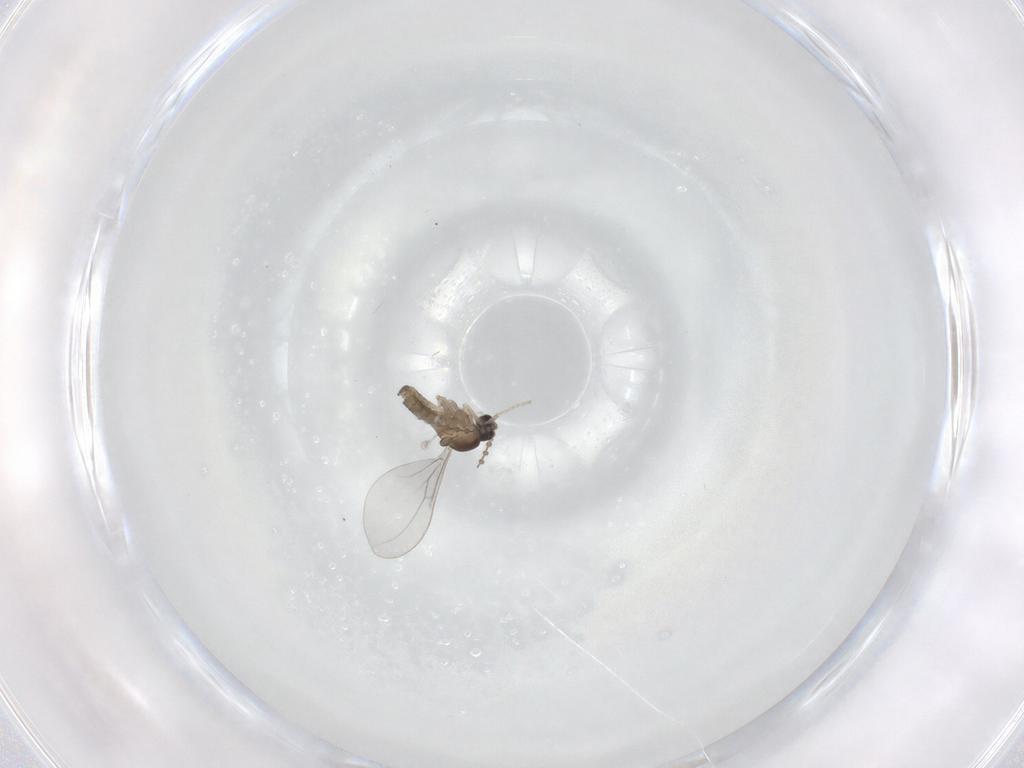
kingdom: Animalia
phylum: Arthropoda
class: Insecta
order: Diptera
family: Cecidomyiidae
